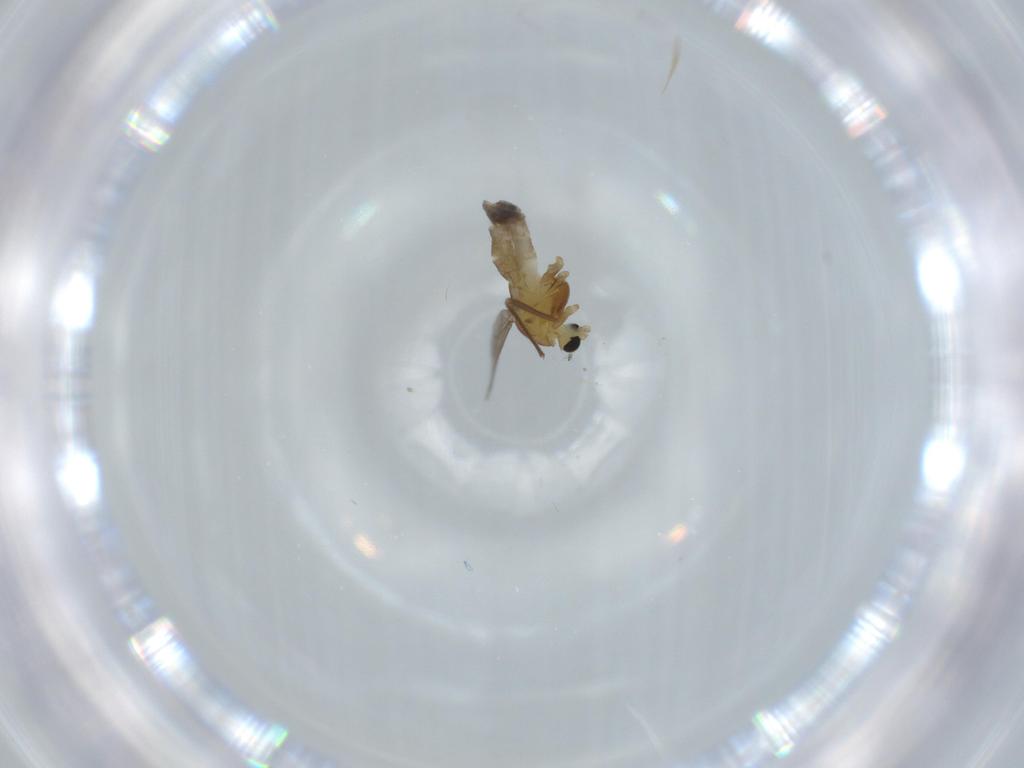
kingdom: Animalia
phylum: Arthropoda
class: Insecta
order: Diptera
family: Chironomidae
